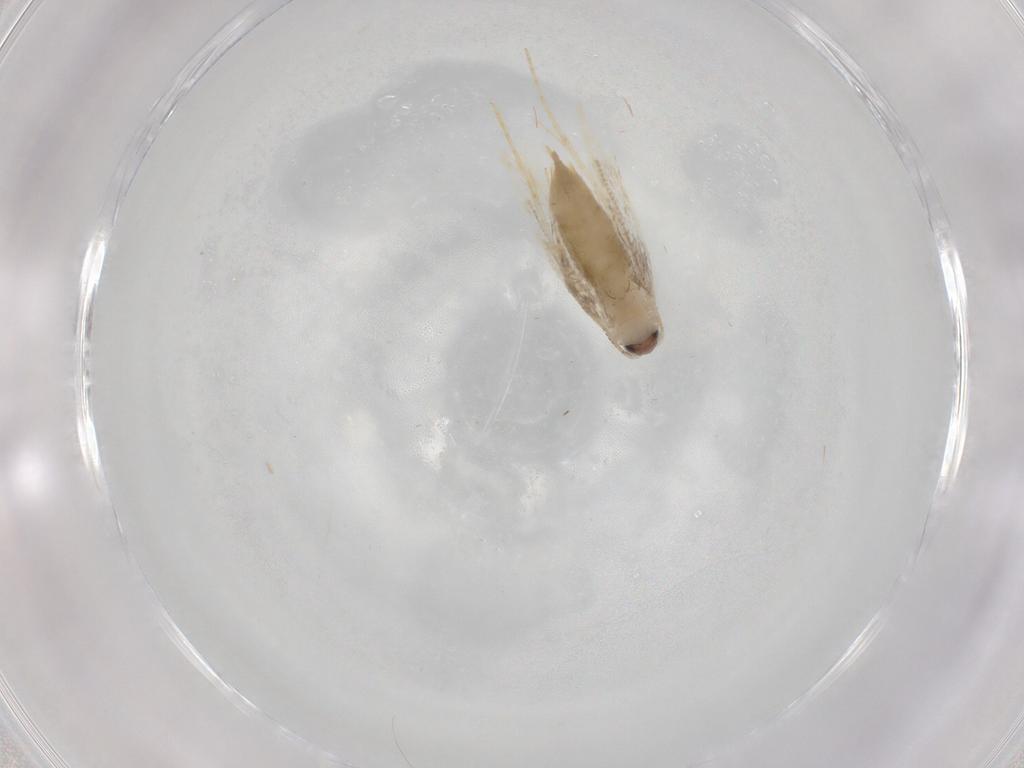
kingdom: Animalia
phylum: Arthropoda
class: Insecta
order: Lepidoptera
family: Tineidae
